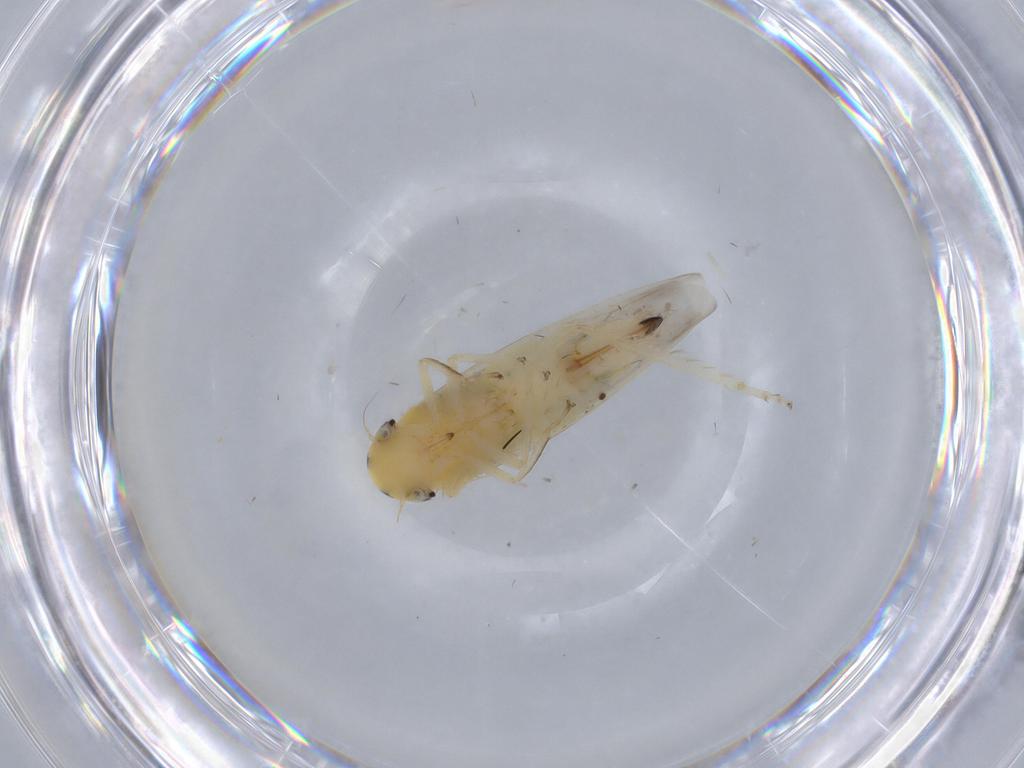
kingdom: Animalia
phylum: Arthropoda
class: Insecta
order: Hemiptera
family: Cicadellidae
